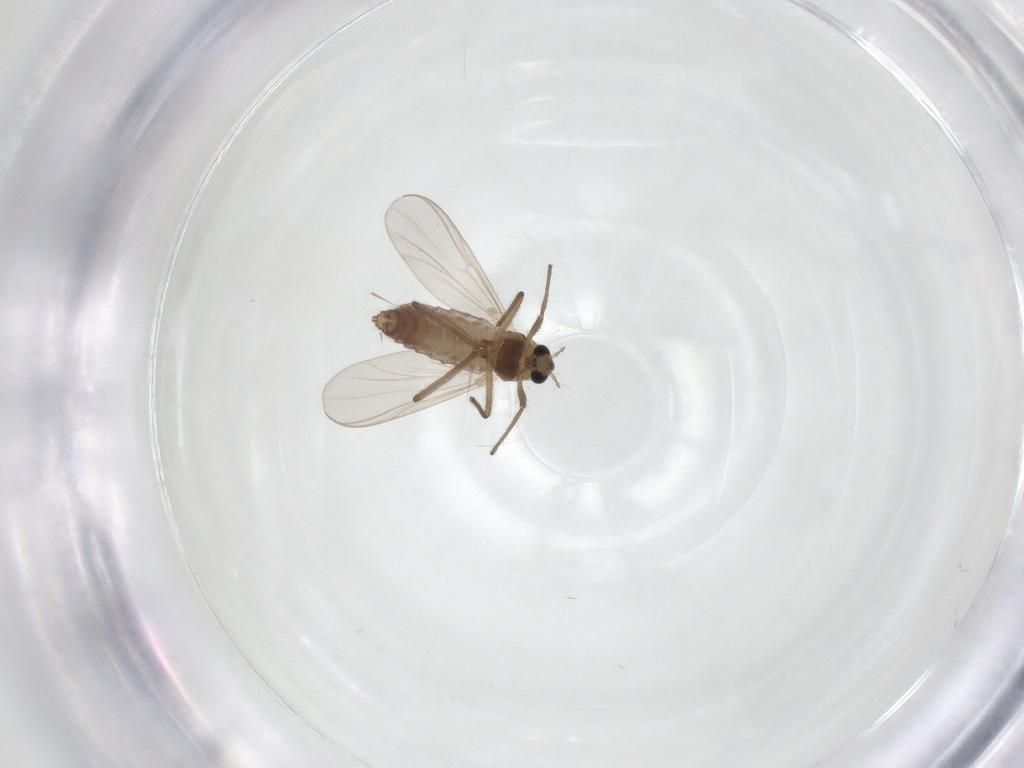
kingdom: Animalia
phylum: Arthropoda
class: Insecta
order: Diptera
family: Chironomidae
